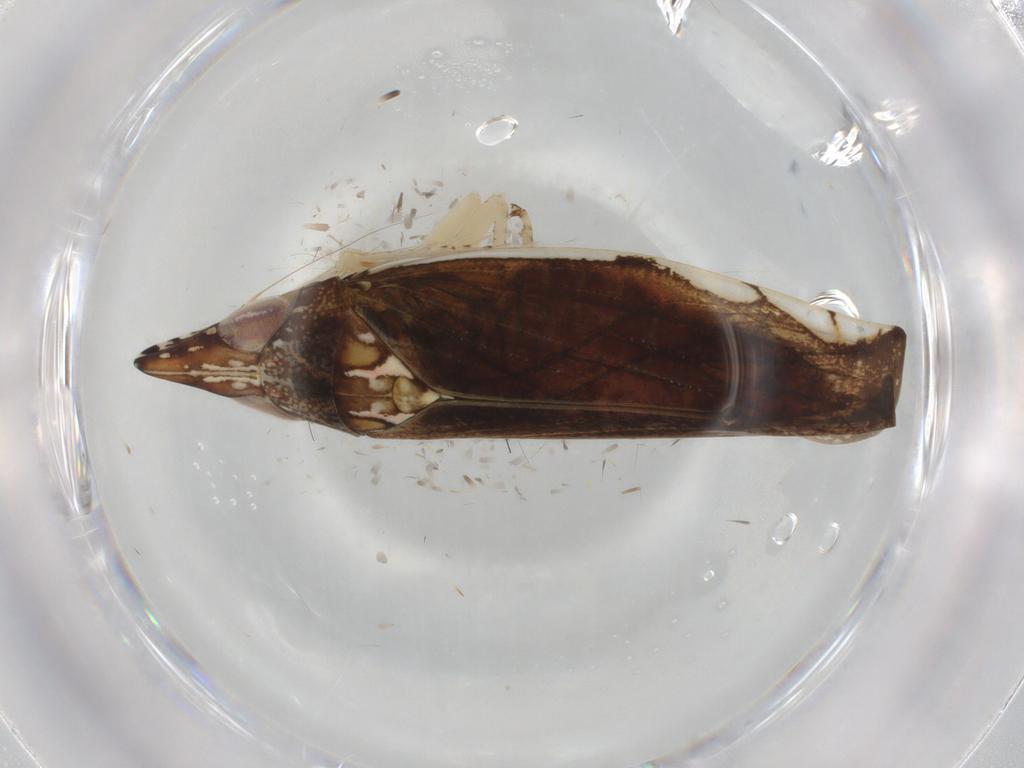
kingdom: Animalia
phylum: Arthropoda
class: Insecta
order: Hemiptera
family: Cicadellidae
